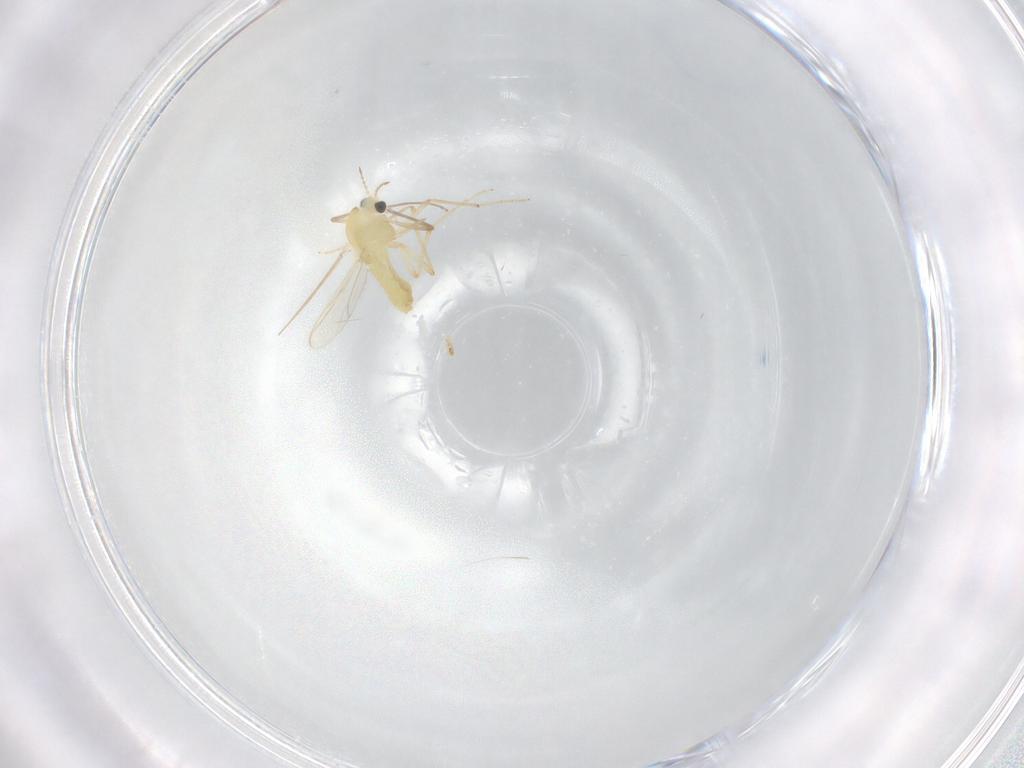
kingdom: Animalia
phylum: Arthropoda
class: Insecta
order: Diptera
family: Chironomidae
